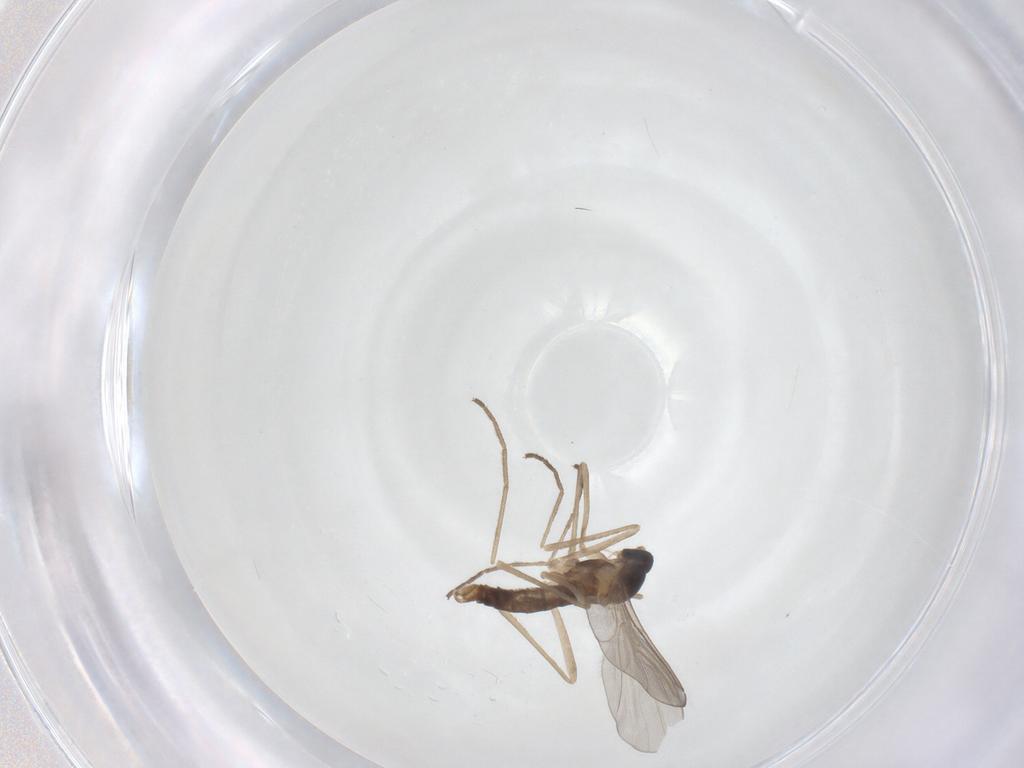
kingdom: Animalia
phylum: Arthropoda
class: Insecta
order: Diptera
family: Cecidomyiidae
